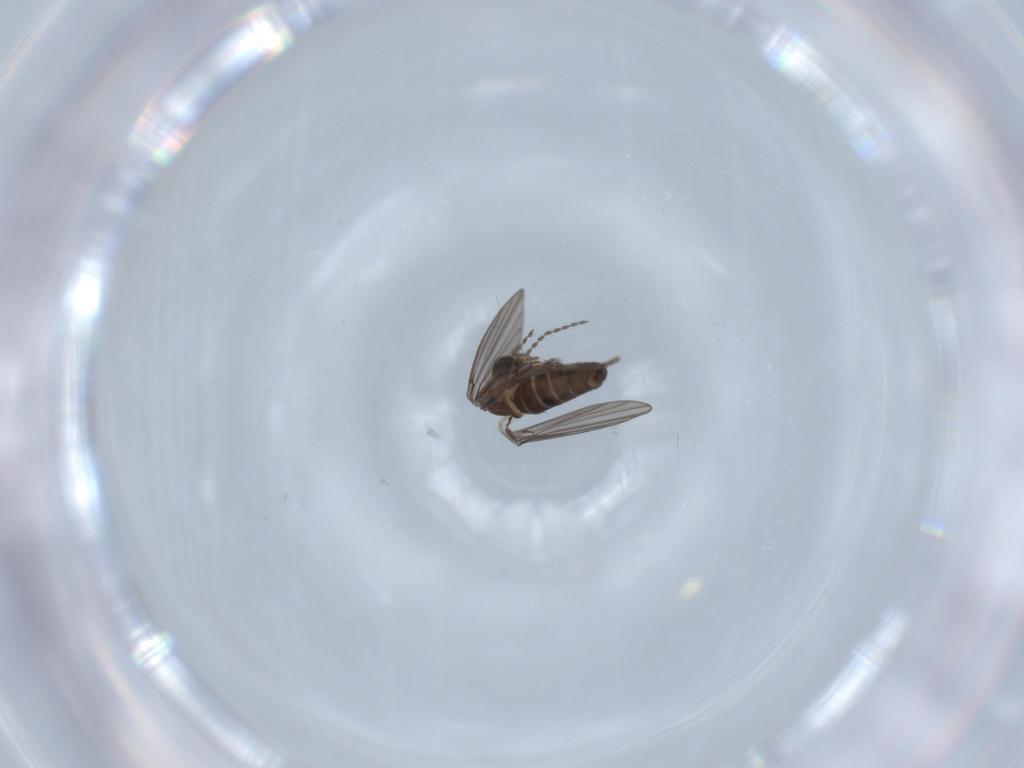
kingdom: Animalia
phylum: Arthropoda
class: Insecta
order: Diptera
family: Psychodidae
